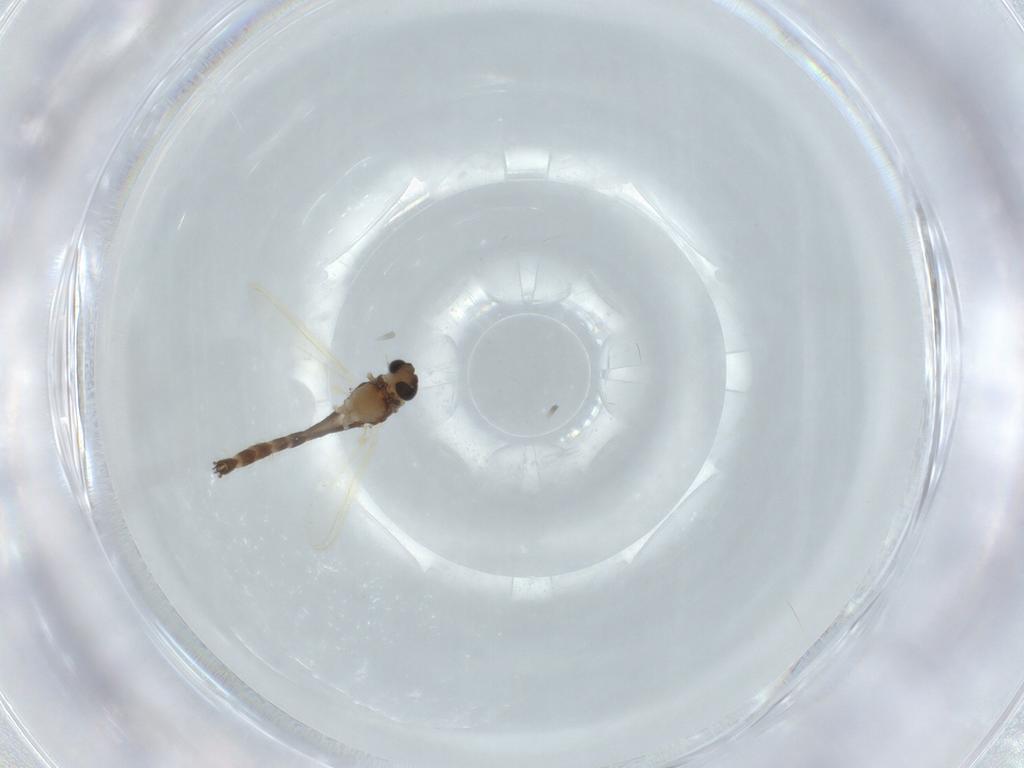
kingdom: Animalia
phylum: Arthropoda
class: Insecta
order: Diptera
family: Chironomidae
